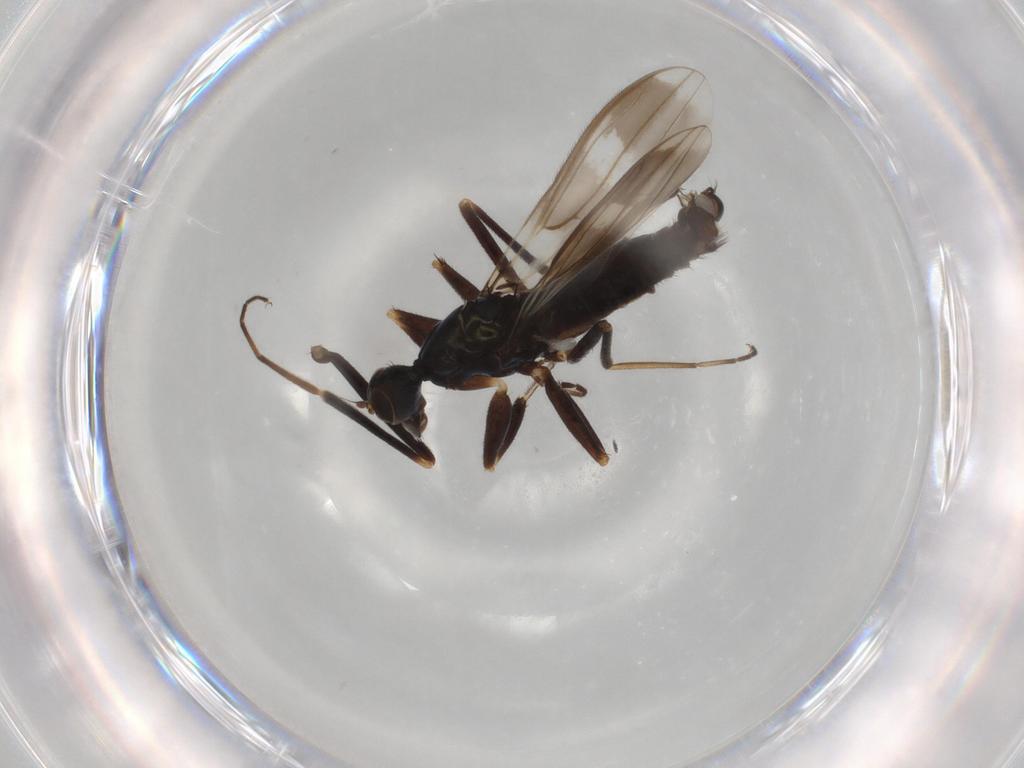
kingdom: Animalia
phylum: Arthropoda
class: Insecta
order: Diptera
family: Hybotidae
